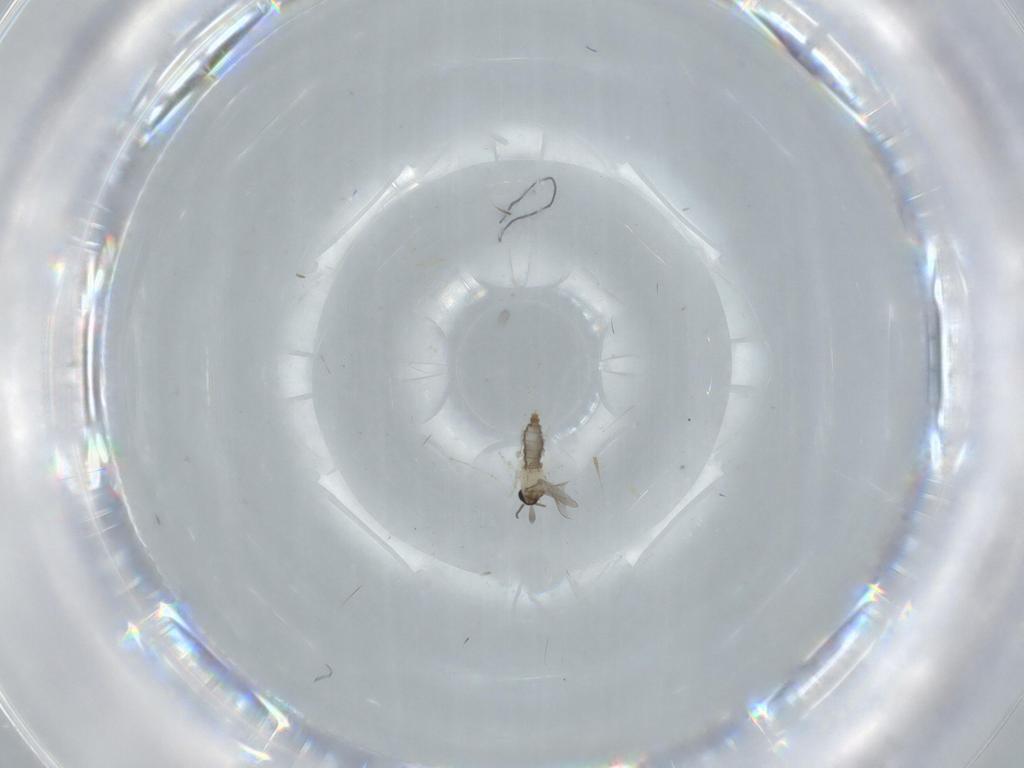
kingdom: Animalia
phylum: Arthropoda
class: Insecta
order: Diptera
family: Cecidomyiidae
